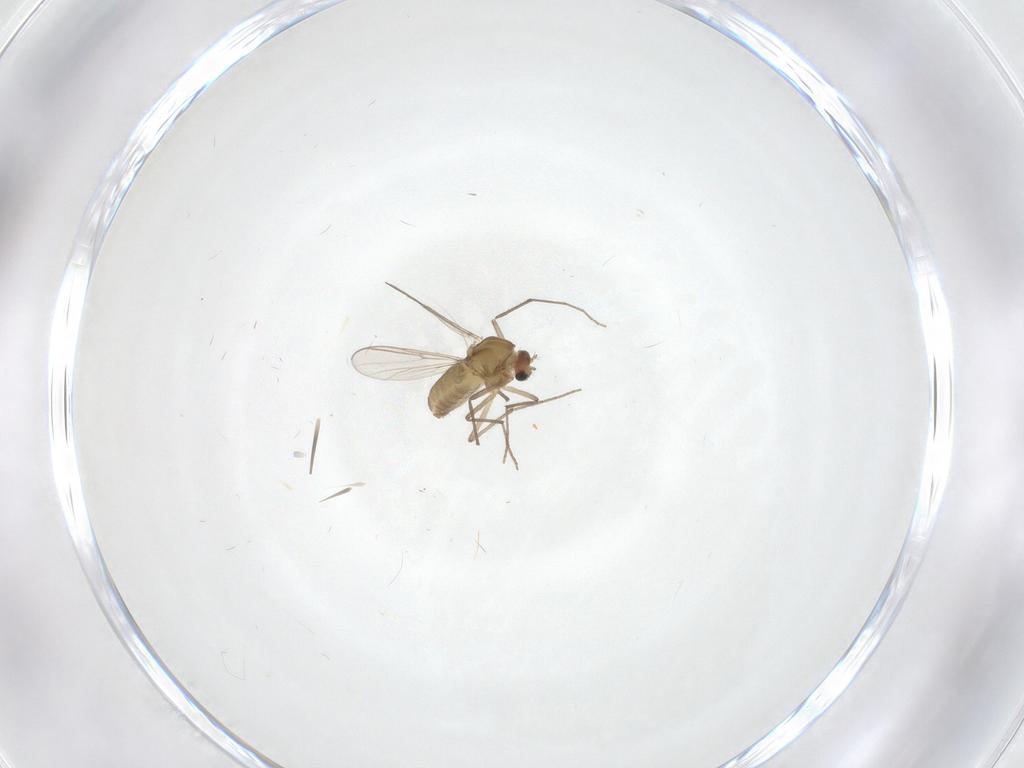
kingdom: Animalia
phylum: Arthropoda
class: Insecta
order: Diptera
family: Chironomidae
